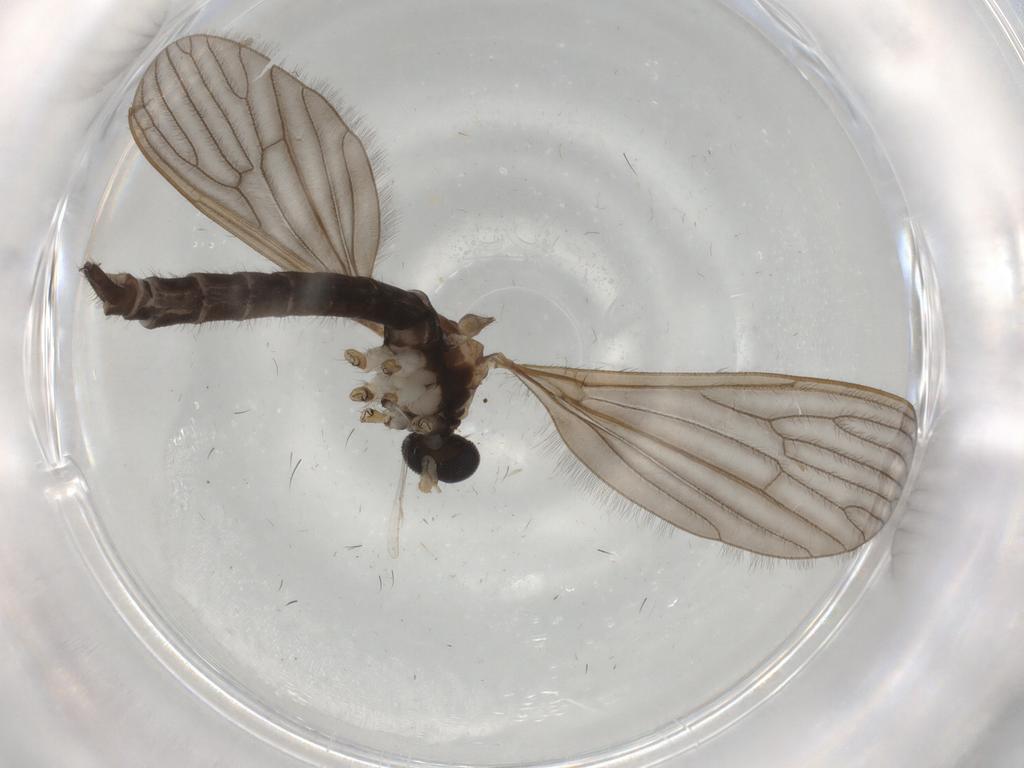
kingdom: Animalia
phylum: Arthropoda
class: Insecta
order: Diptera
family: Cecidomyiidae
